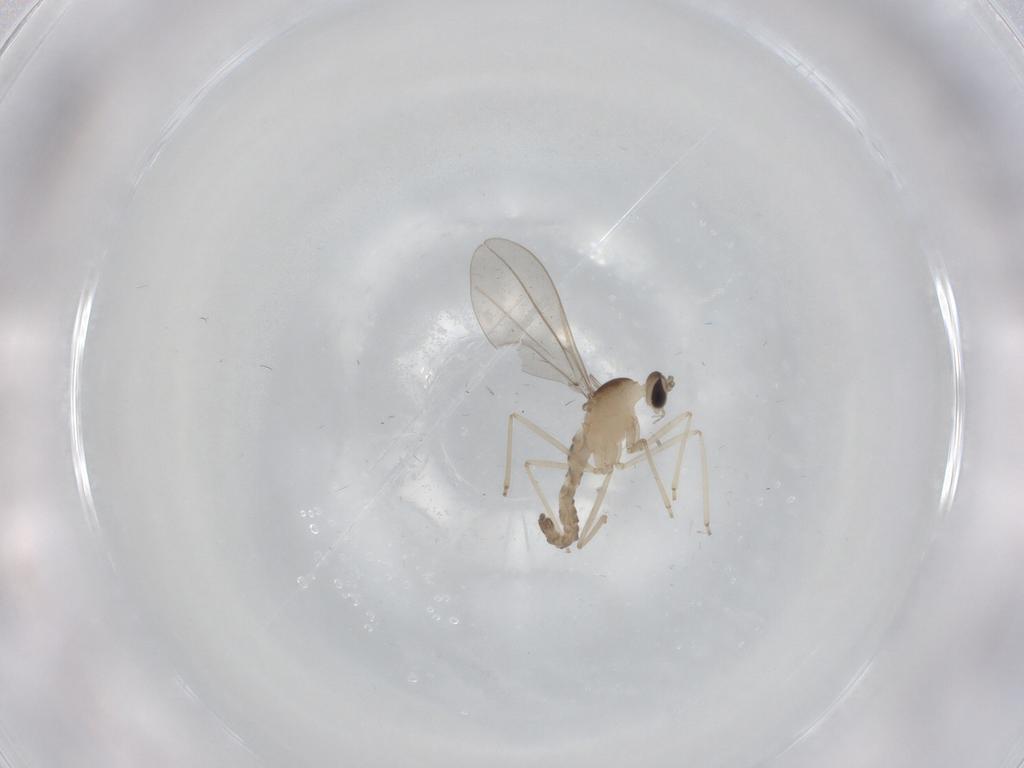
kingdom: Animalia
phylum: Arthropoda
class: Insecta
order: Diptera
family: Cecidomyiidae
